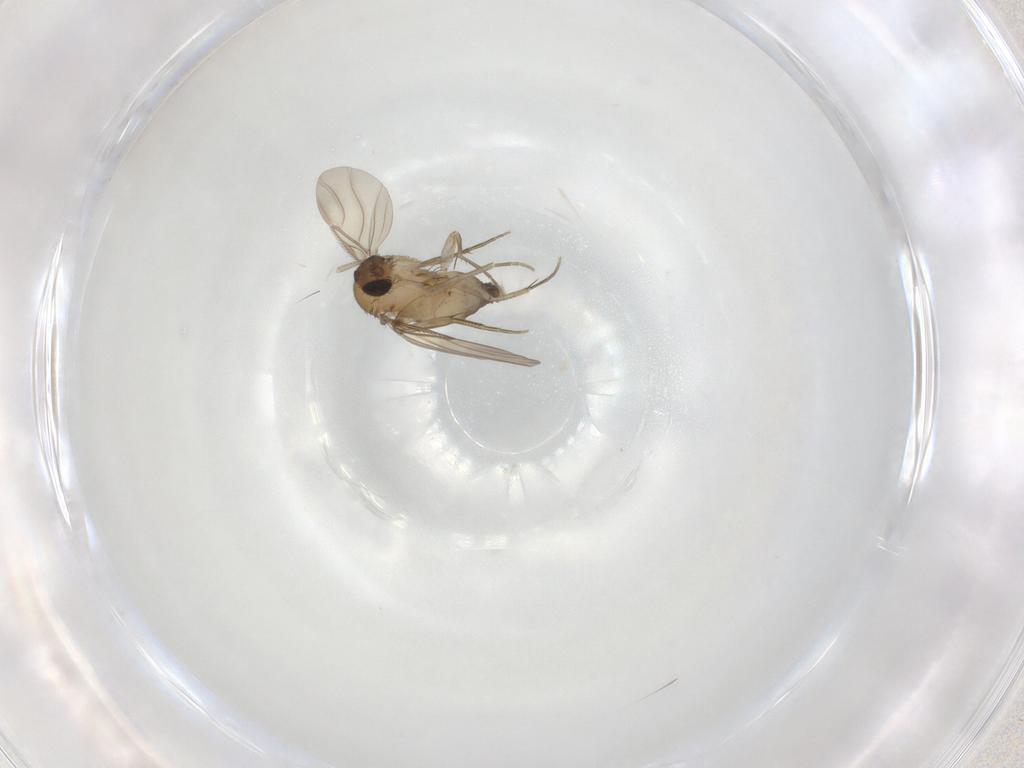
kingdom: Animalia
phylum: Arthropoda
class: Insecta
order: Diptera
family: Phoridae
